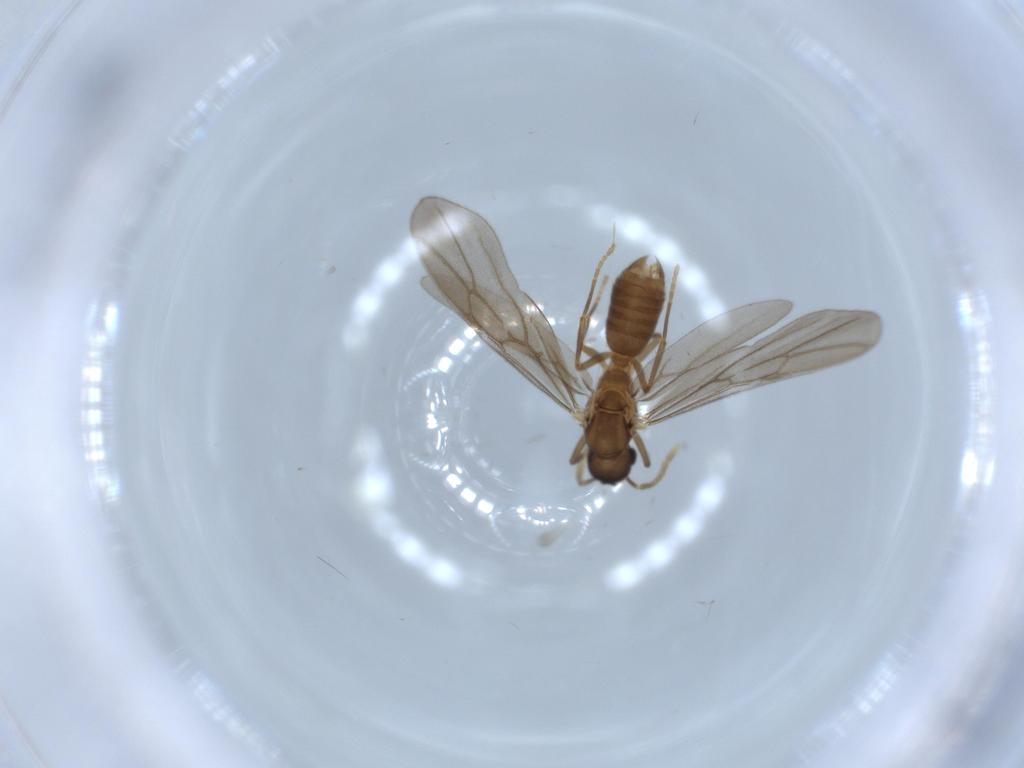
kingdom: Animalia
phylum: Arthropoda
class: Insecta
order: Hymenoptera
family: Formicidae
